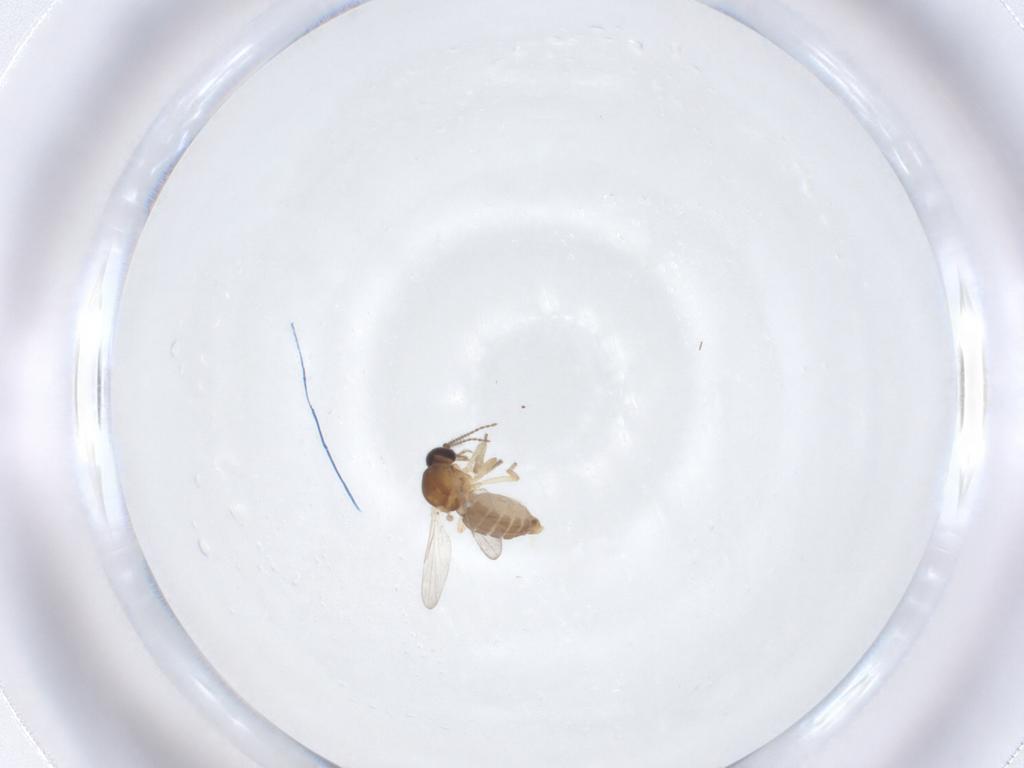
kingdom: Animalia
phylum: Arthropoda
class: Insecta
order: Diptera
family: Ceratopogonidae
